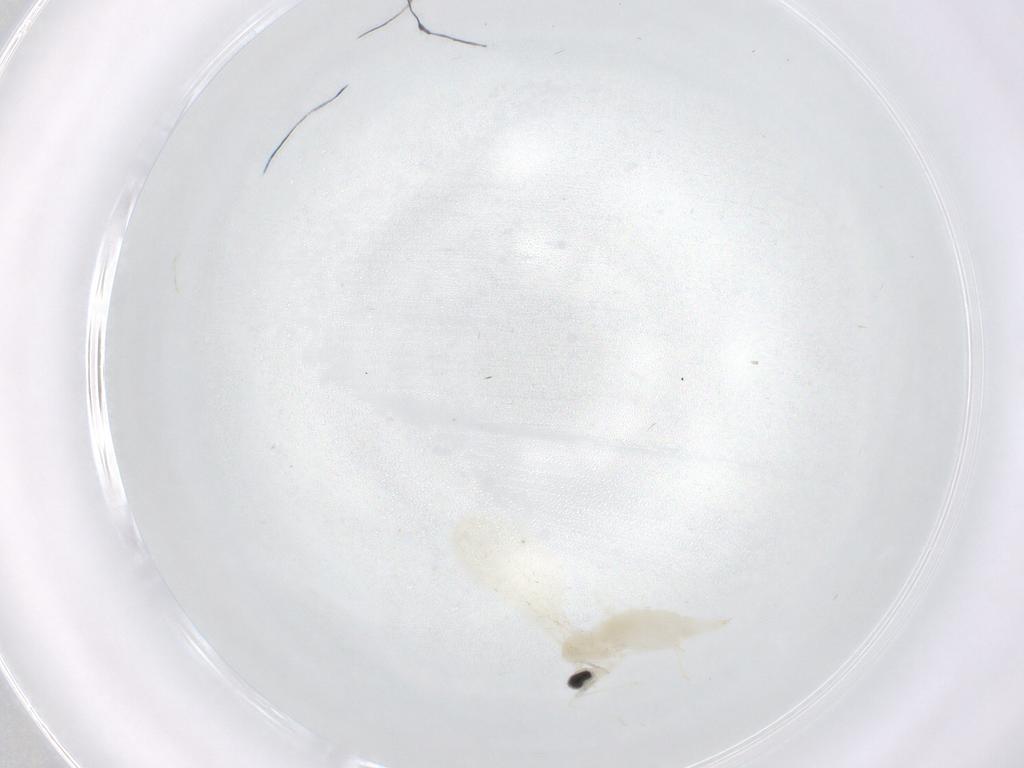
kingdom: Animalia
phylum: Arthropoda
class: Insecta
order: Diptera
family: Cecidomyiidae
